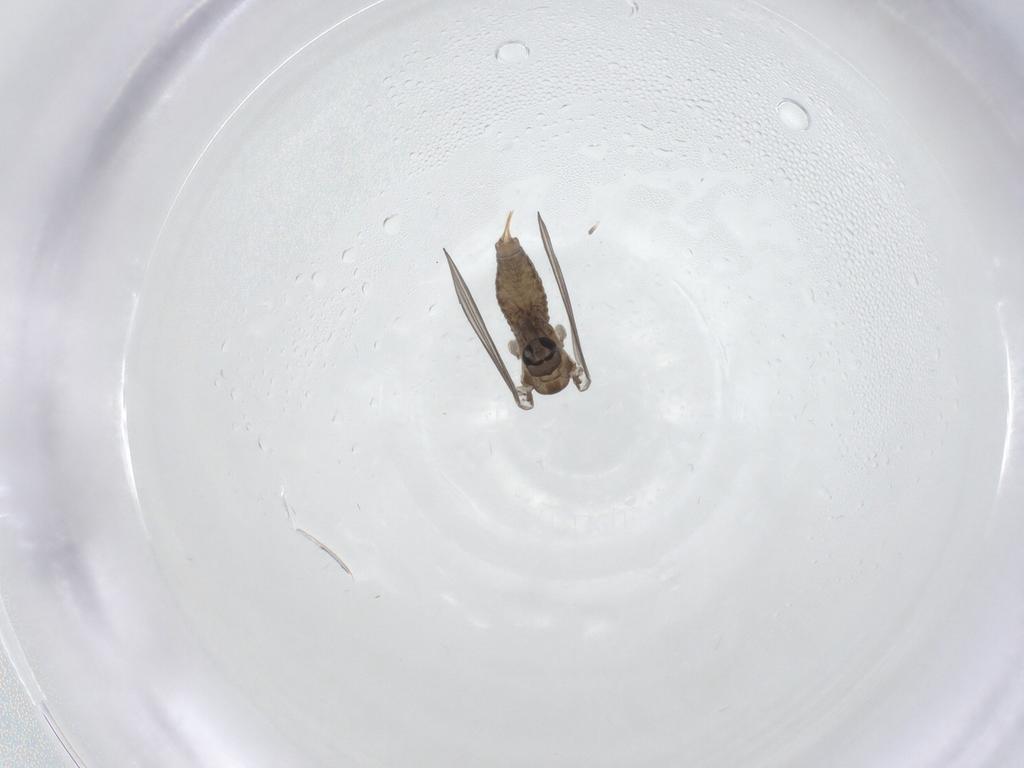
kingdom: Animalia
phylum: Arthropoda
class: Insecta
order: Diptera
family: Psychodidae
